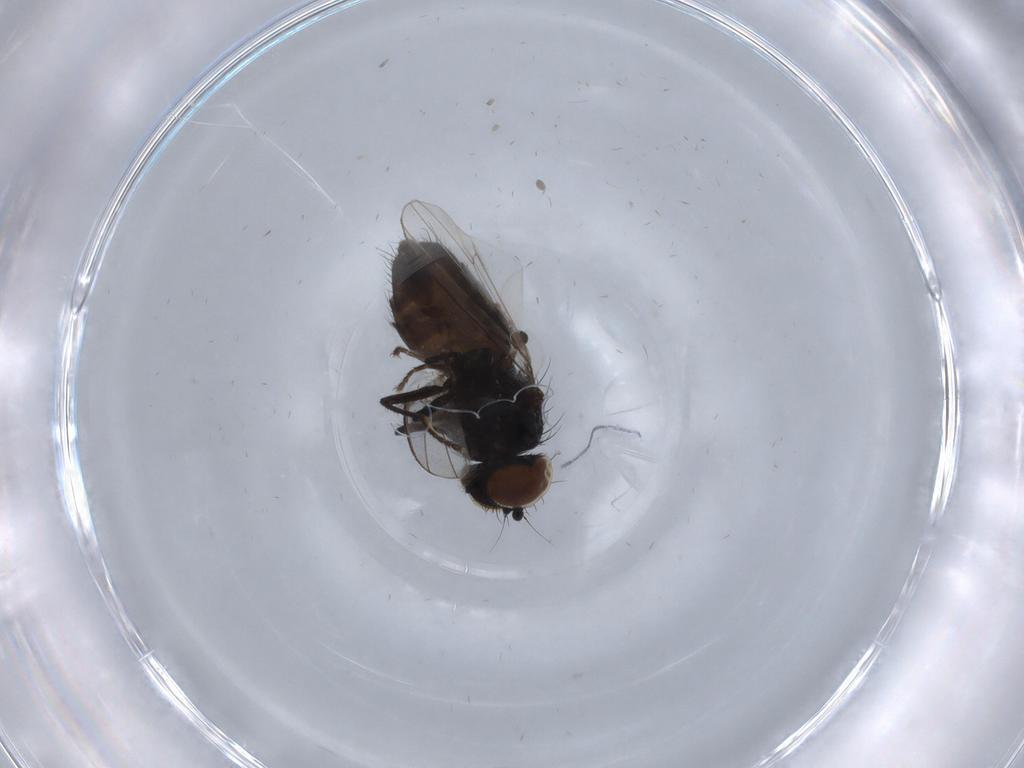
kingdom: Animalia
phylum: Arthropoda
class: Insecta
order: Diptera
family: Culicidae
